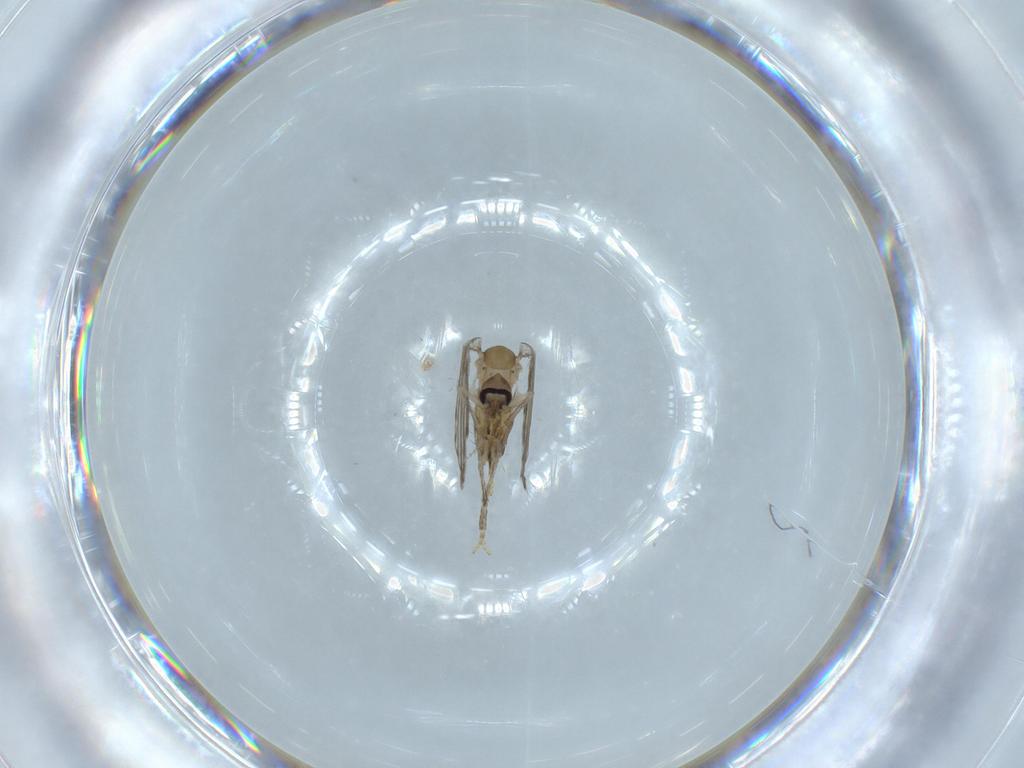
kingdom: Animalia
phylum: Arthropoda
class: Insecta
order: Diptera
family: Psychodidae
